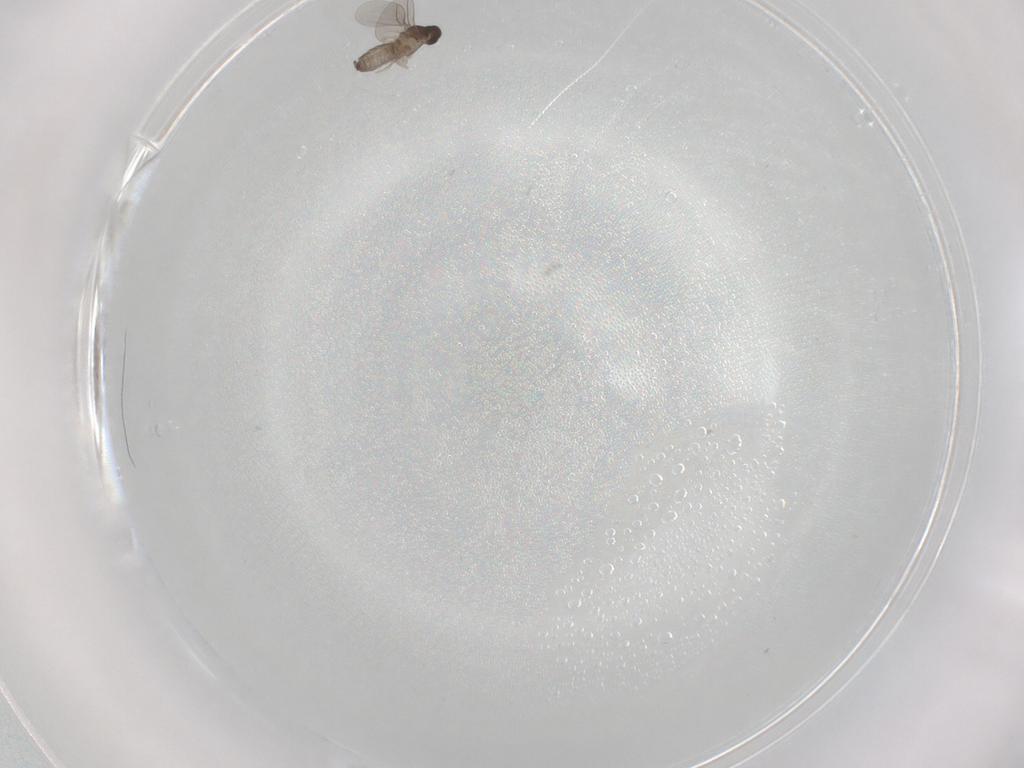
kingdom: Animalia
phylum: Arthropoda
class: Insecta
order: Diptera
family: Cecidomyiidae
